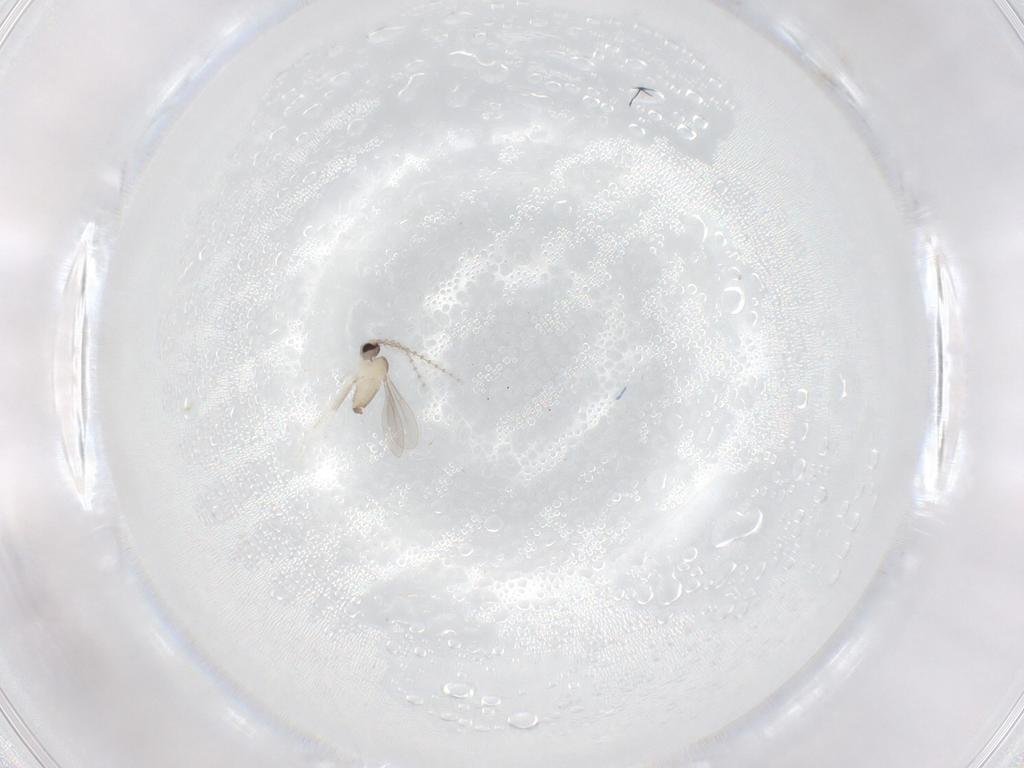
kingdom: Animalia
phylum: Arthropoda
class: Insecta
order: Diptera
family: Cecidomyiidae
